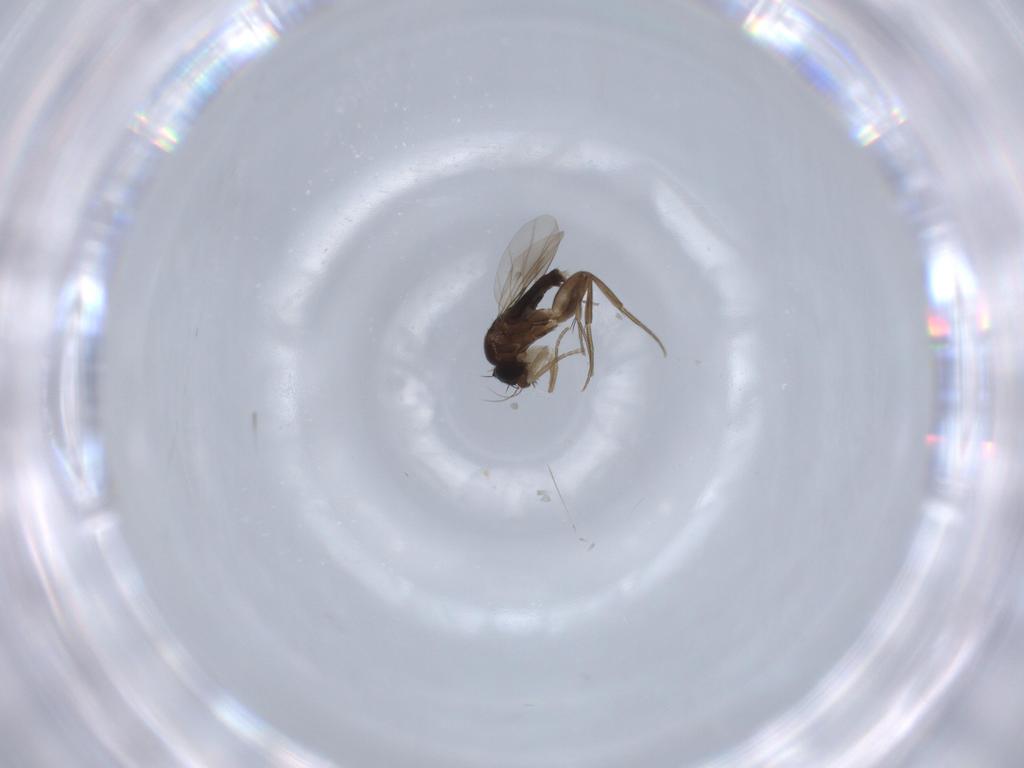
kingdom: Animalia
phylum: Arthropoda
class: Insecta
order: Diptera
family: Phoridae
